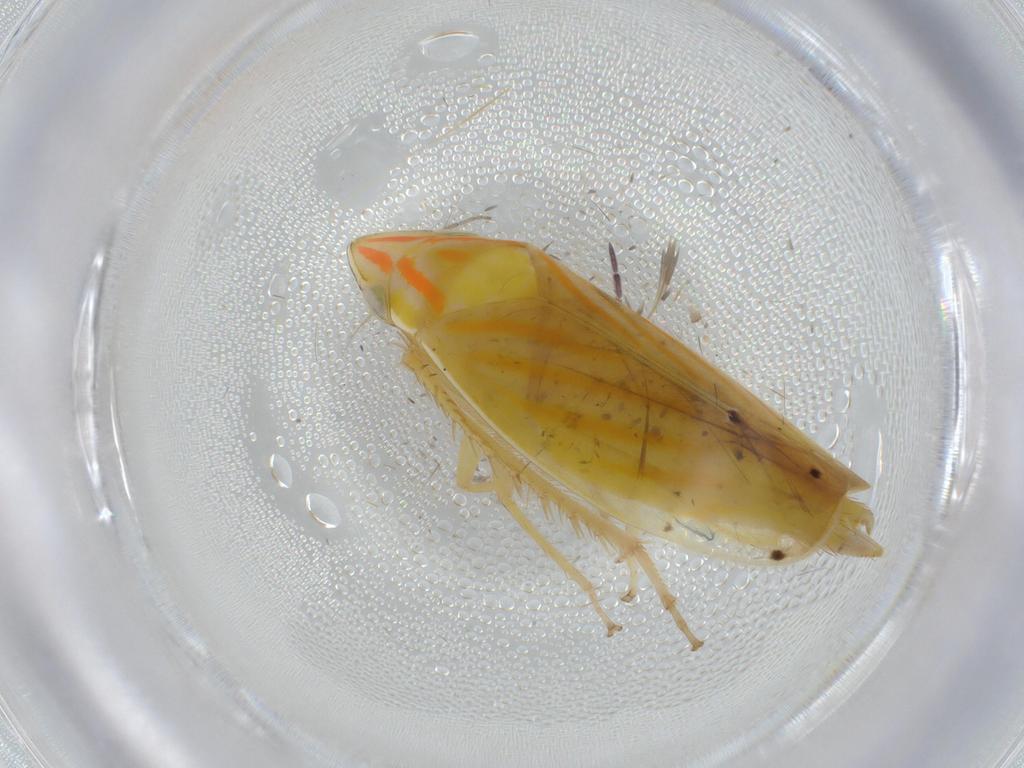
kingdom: Animalia
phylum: Arthropoda
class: Insecta
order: Hemiptera
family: Cicadellidae
